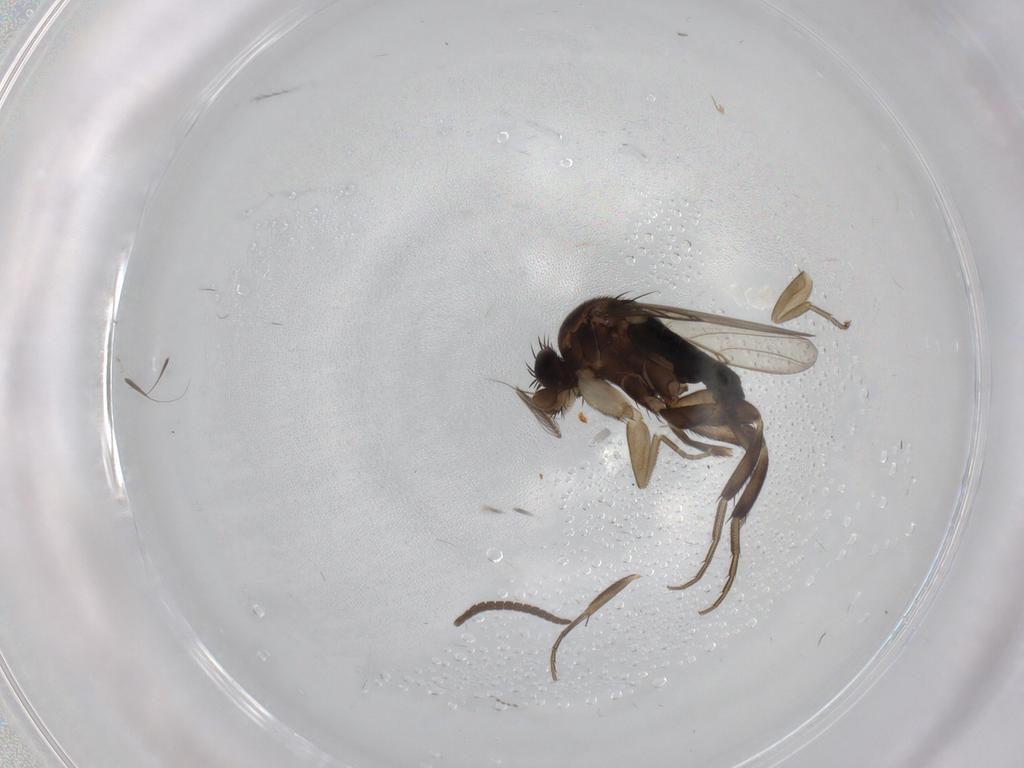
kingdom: Animalia
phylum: Arthropoda
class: Insecta
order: Diptera
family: Phoridae
